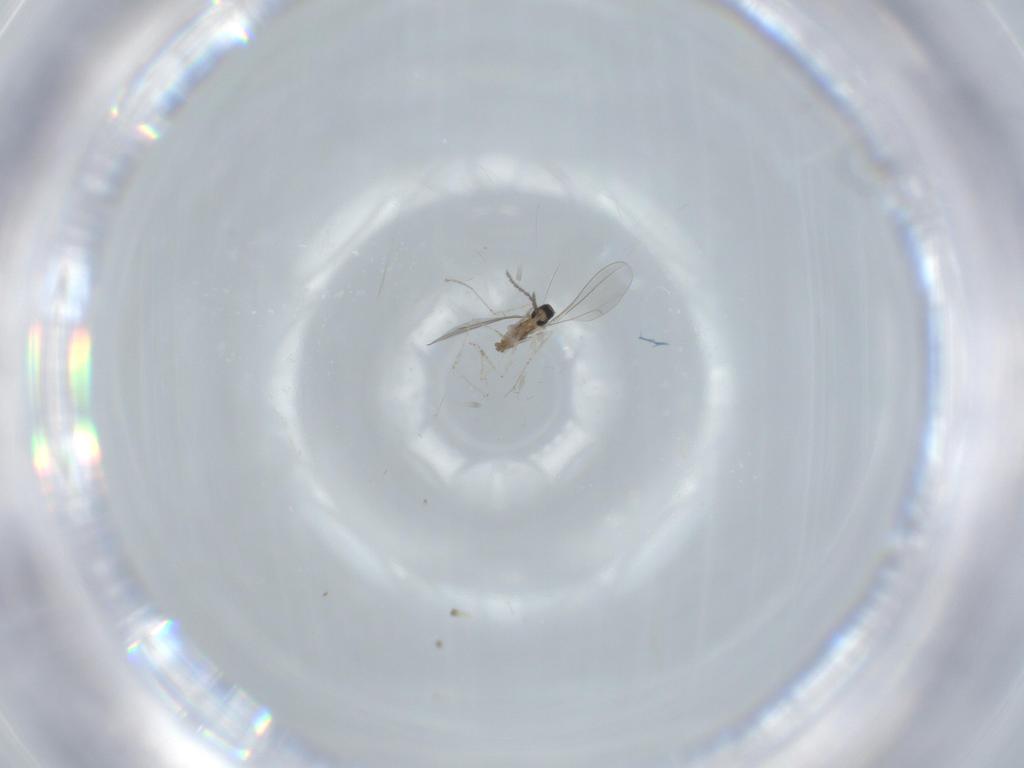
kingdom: Animalia
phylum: Arthropoda
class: Insecta
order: Diptera
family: Cecidomyiidae
